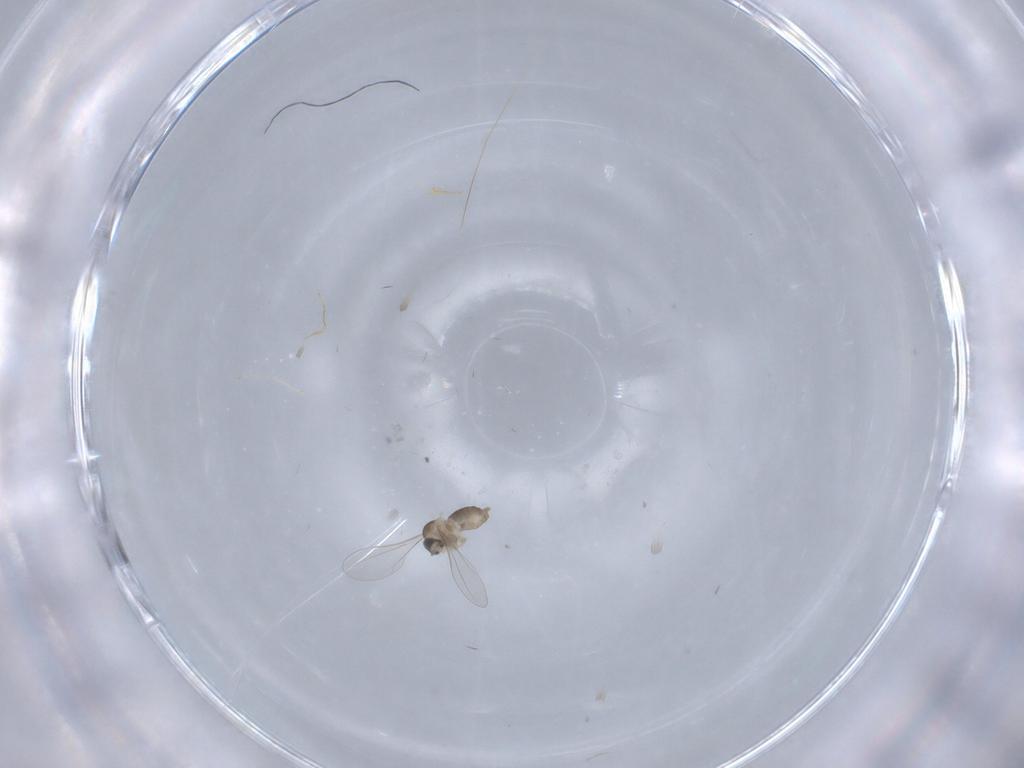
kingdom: Animalia
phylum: Arthropoda
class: Insecta
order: Diptera
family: Cecidomyiidae
